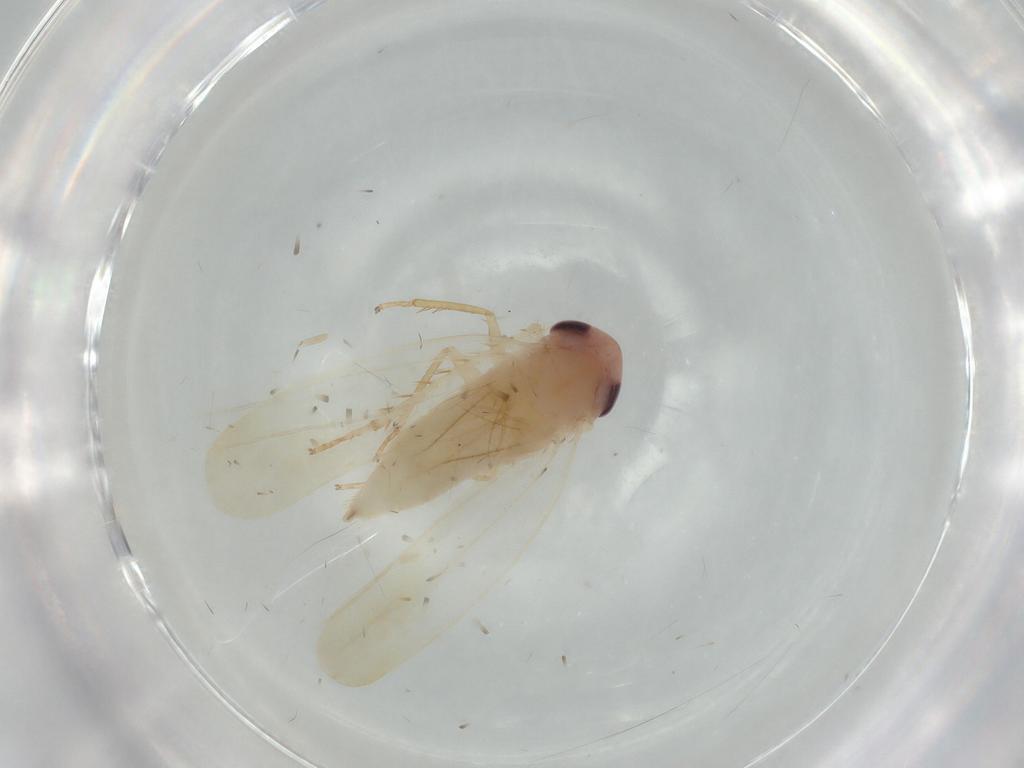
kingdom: Animalia
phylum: Arthropoda
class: Insecta
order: Hemiptera
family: Cicadellidae
